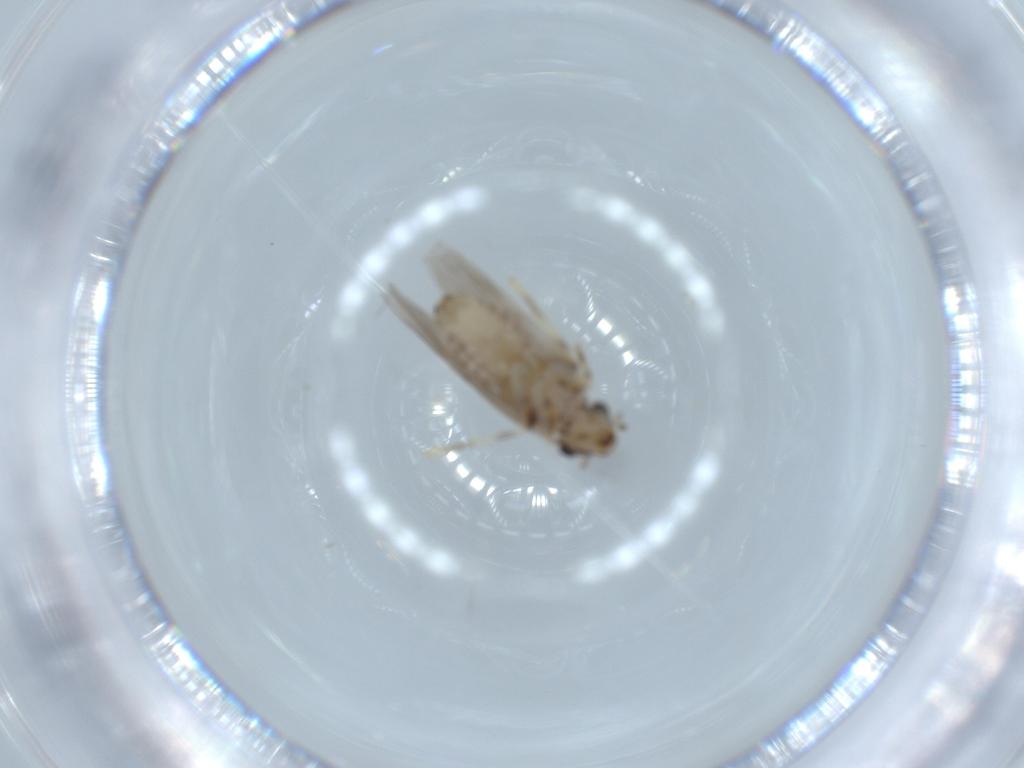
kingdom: Animalia
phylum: Arthropoda
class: Insecta
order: Psocodea
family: Lepidopsocidae
